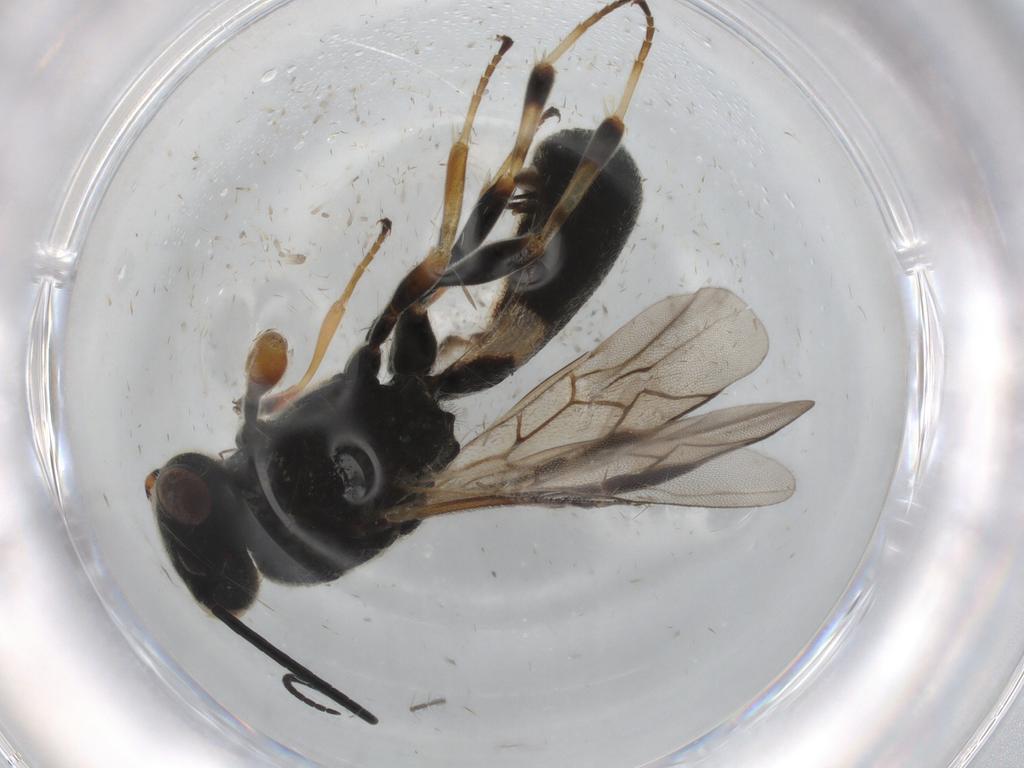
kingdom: Animalia
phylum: Arthropoda
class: Insecta
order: Hymenoptera
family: Braconidae
